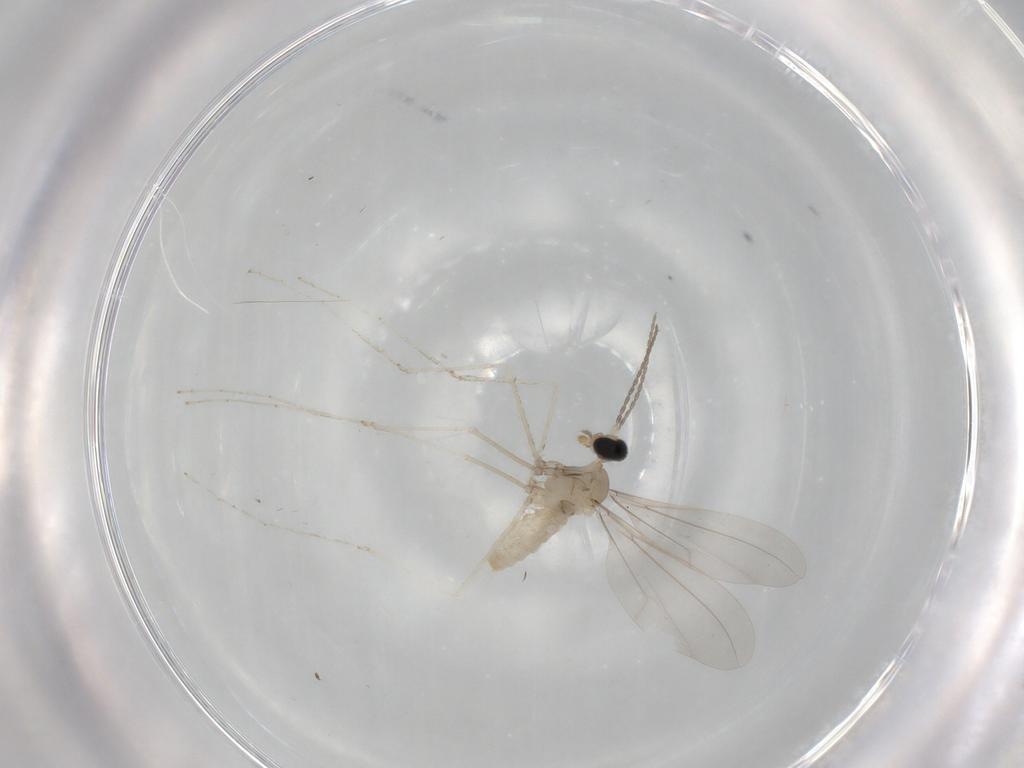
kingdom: Animalia
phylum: Arthropoda
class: Insecta
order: Diptera
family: Cecidomyiidae
